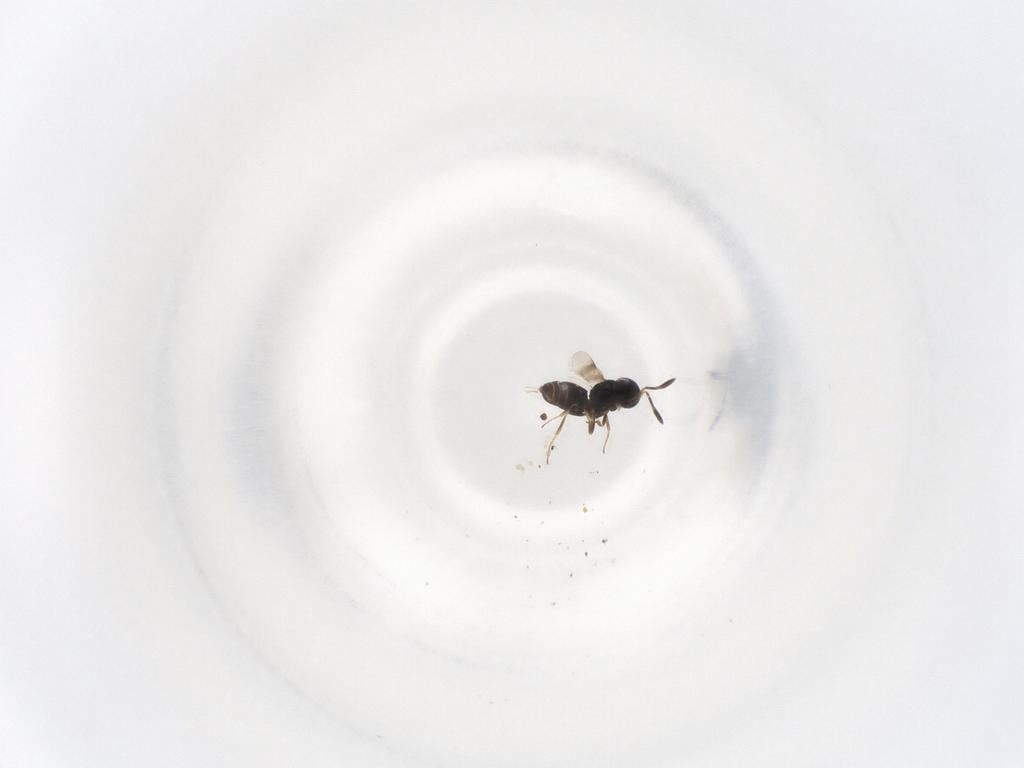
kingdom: Animalia
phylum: Arthropoda
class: Insecta
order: Hymenoptera
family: Scelionidae
